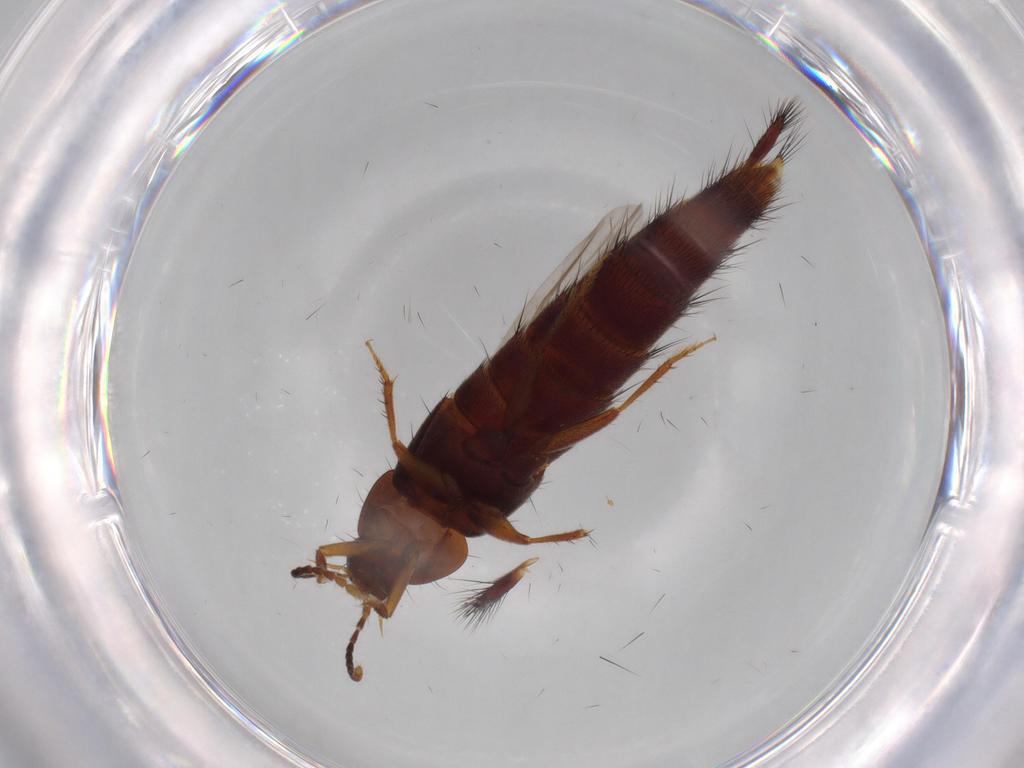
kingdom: Animalia
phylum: Arthropoda
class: Insecta
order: Coleoptera
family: Staphylinidae
